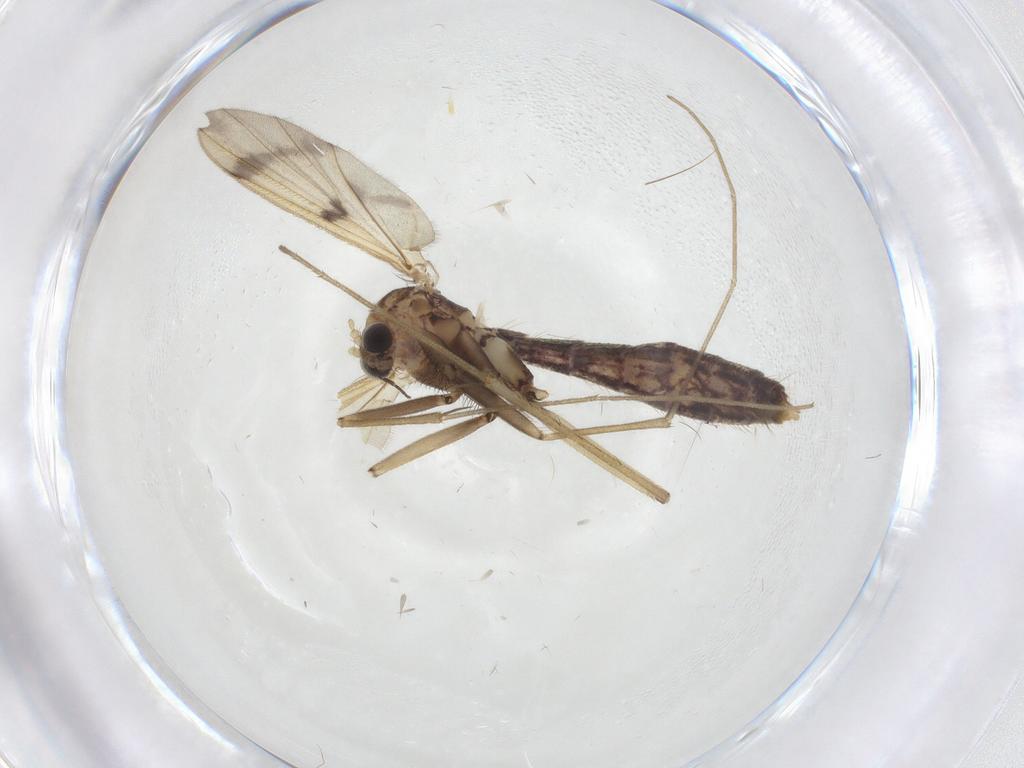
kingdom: Animalia
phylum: Arthropoda
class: Insecta
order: Diptera
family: Mycetophilidae
